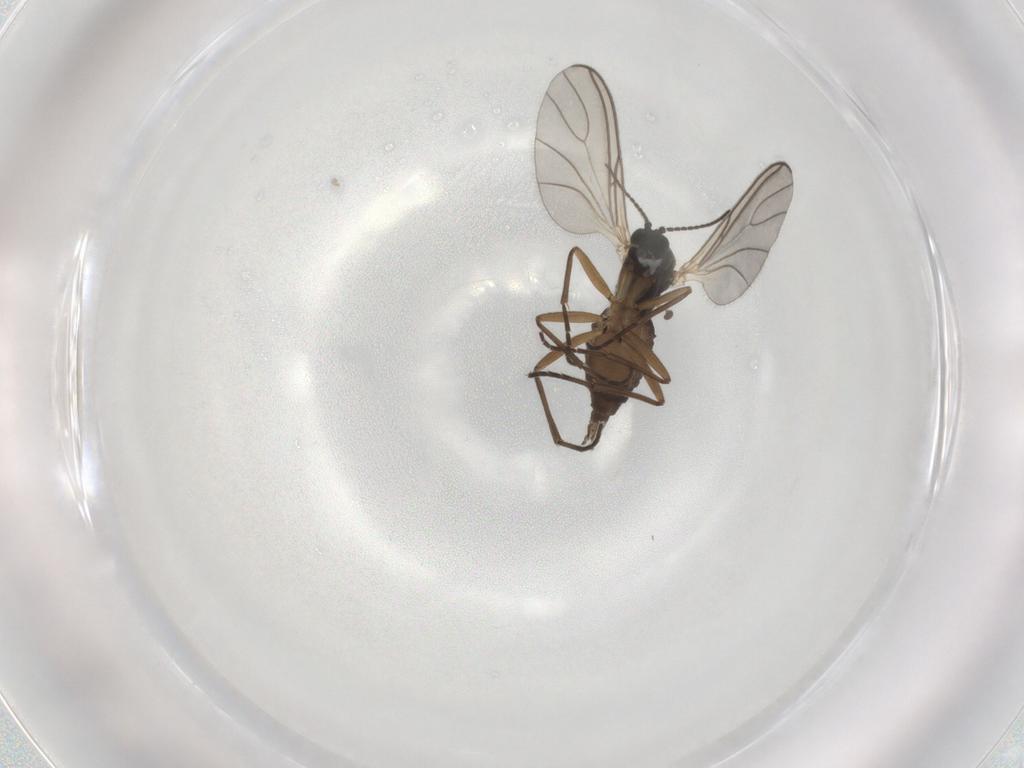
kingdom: Animalia
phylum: Arthropoda
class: Insecta
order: Diptera
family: Sciaridae
